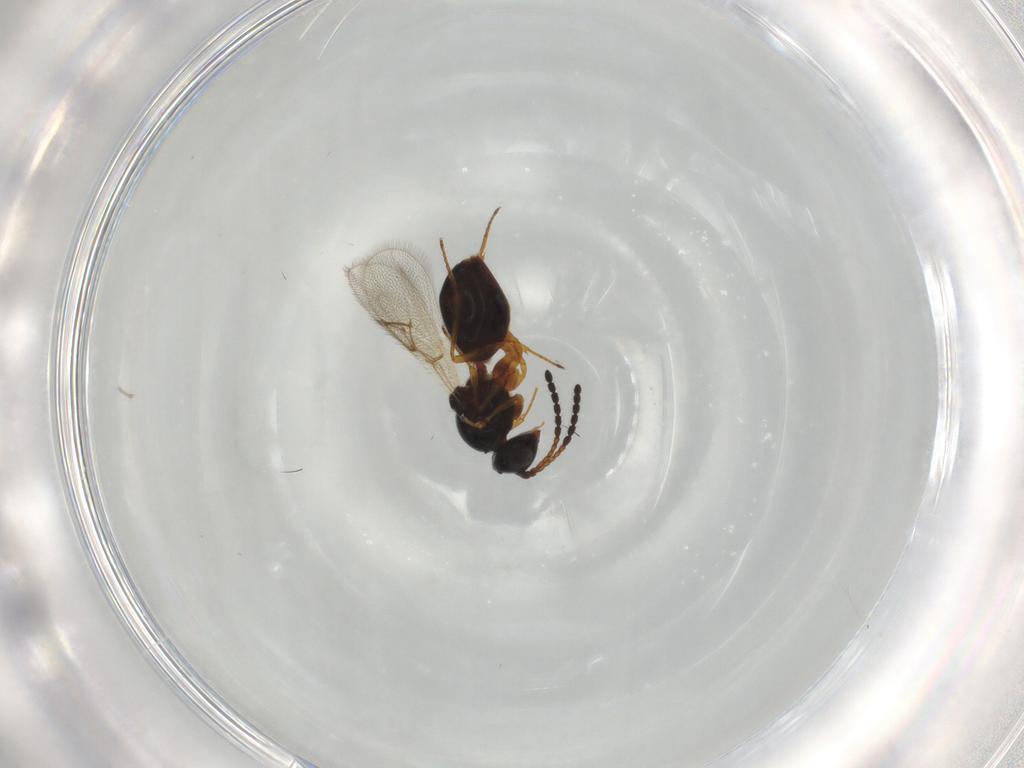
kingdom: Animalia
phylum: Arthropoda
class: Insecta
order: Hymenoptera
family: Figitidae
